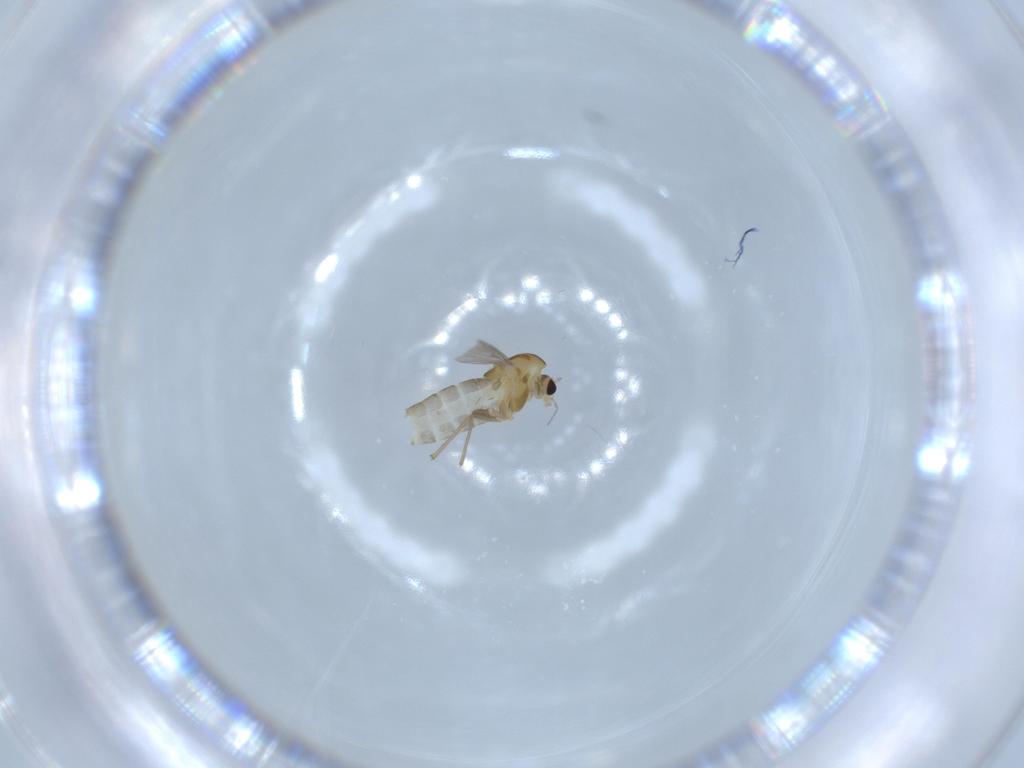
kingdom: Animalia
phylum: Arthropoda
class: Insecta
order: Diptera
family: Chironomidae
